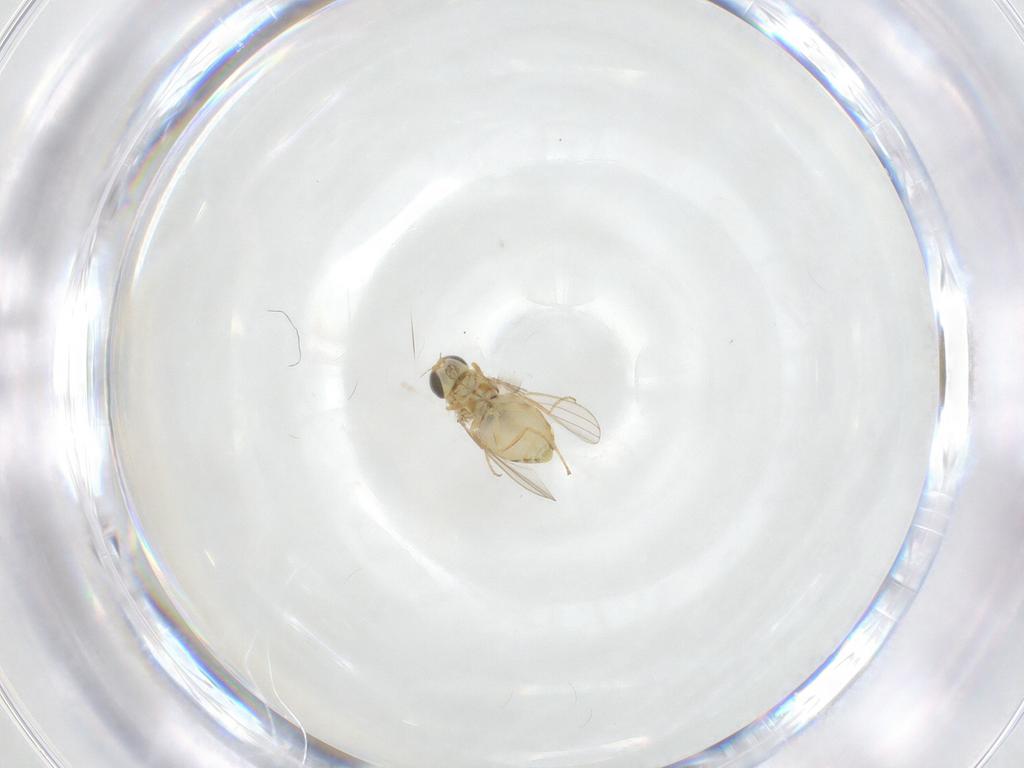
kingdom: Animalia
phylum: Arthropoda
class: Insecta
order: Diptera
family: Chyromyidae
